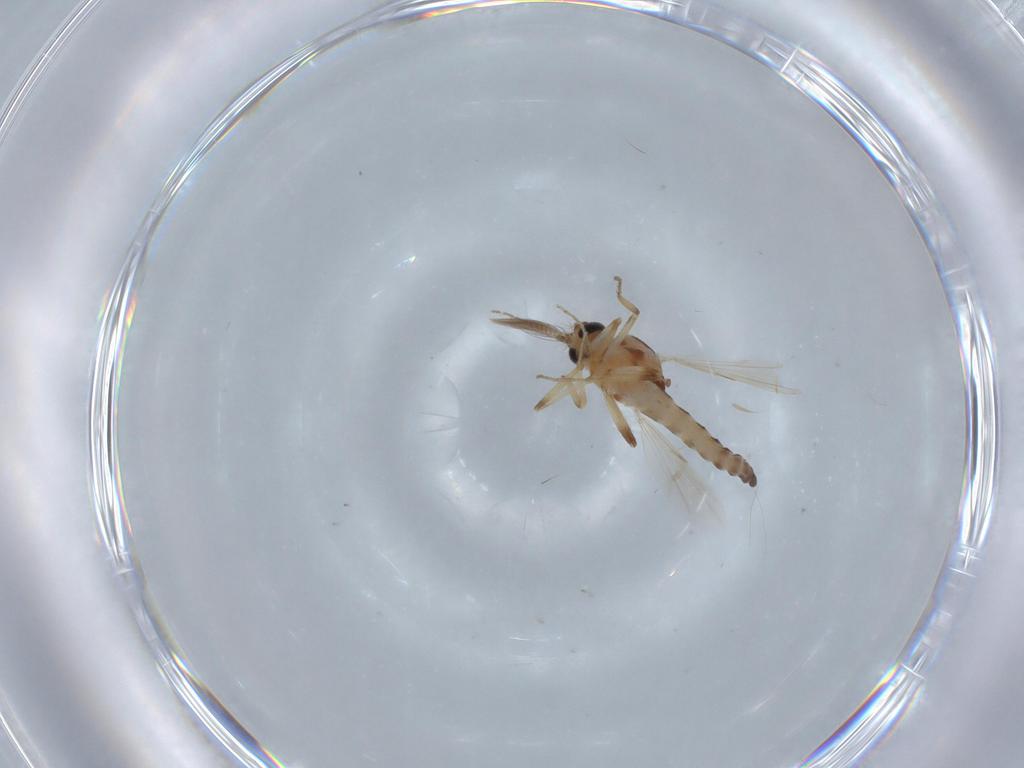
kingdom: Animalia
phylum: Arthropoda
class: Insecta
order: Diptera
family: Ceratopogonidae
